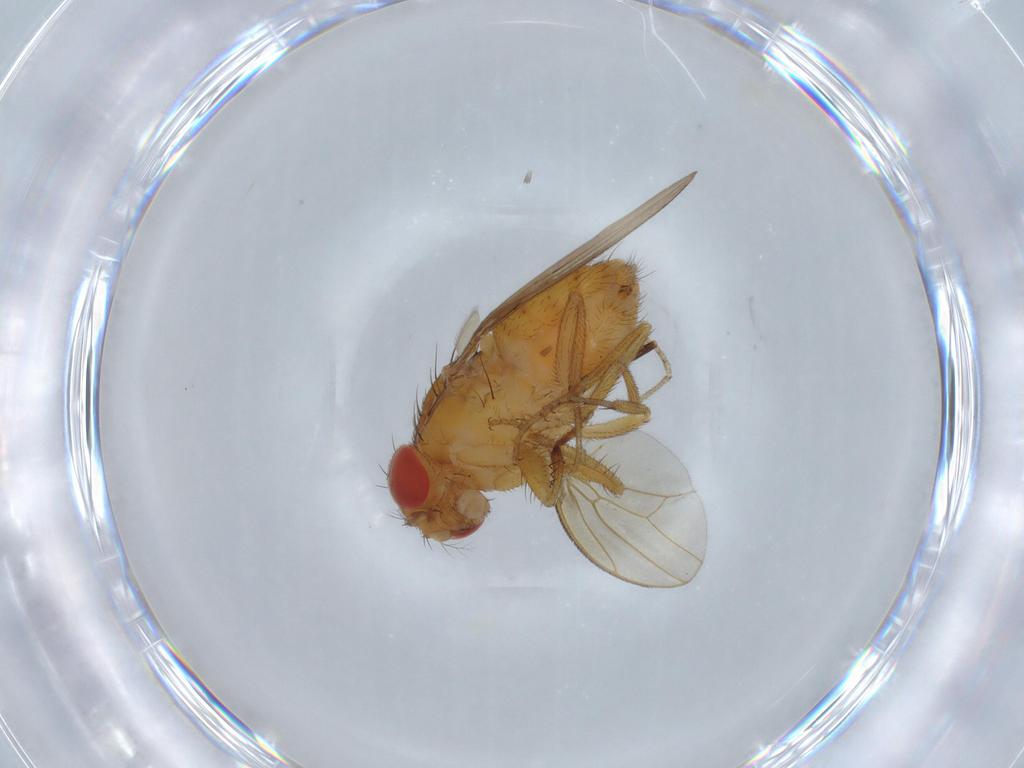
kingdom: Animalia
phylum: Arthropoda
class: Insecta
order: Diptera
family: Drosophilidae
